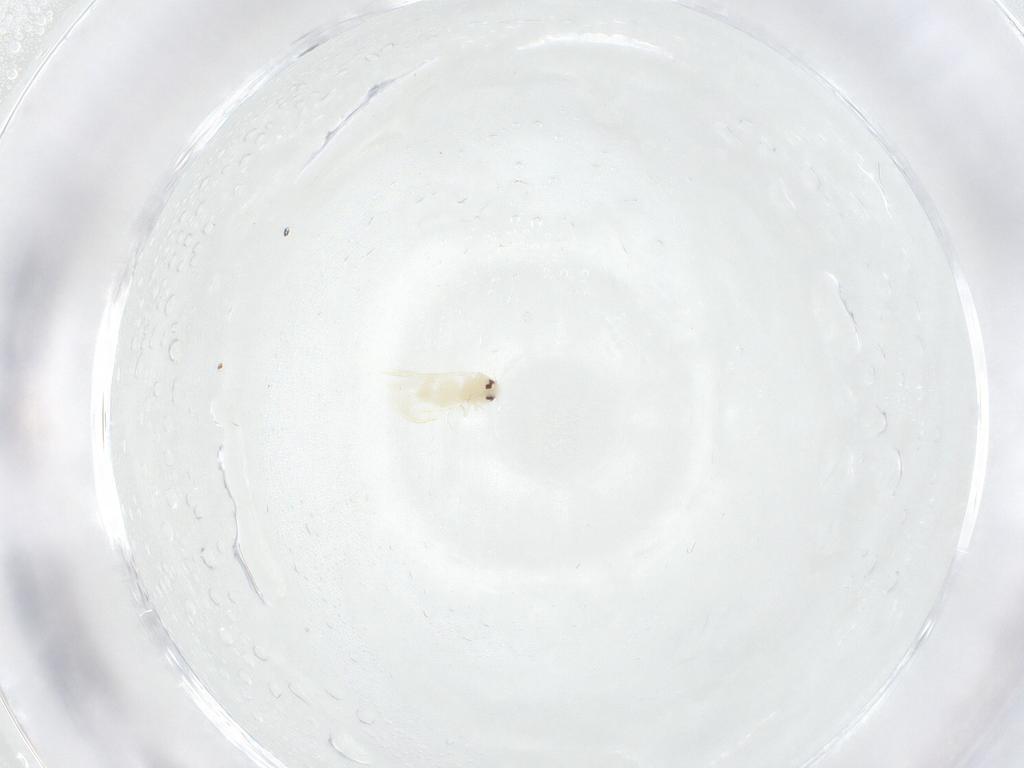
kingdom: Animalia
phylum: Arthropoda
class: Insecta
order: Hemiptera
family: Aleyrodidae
